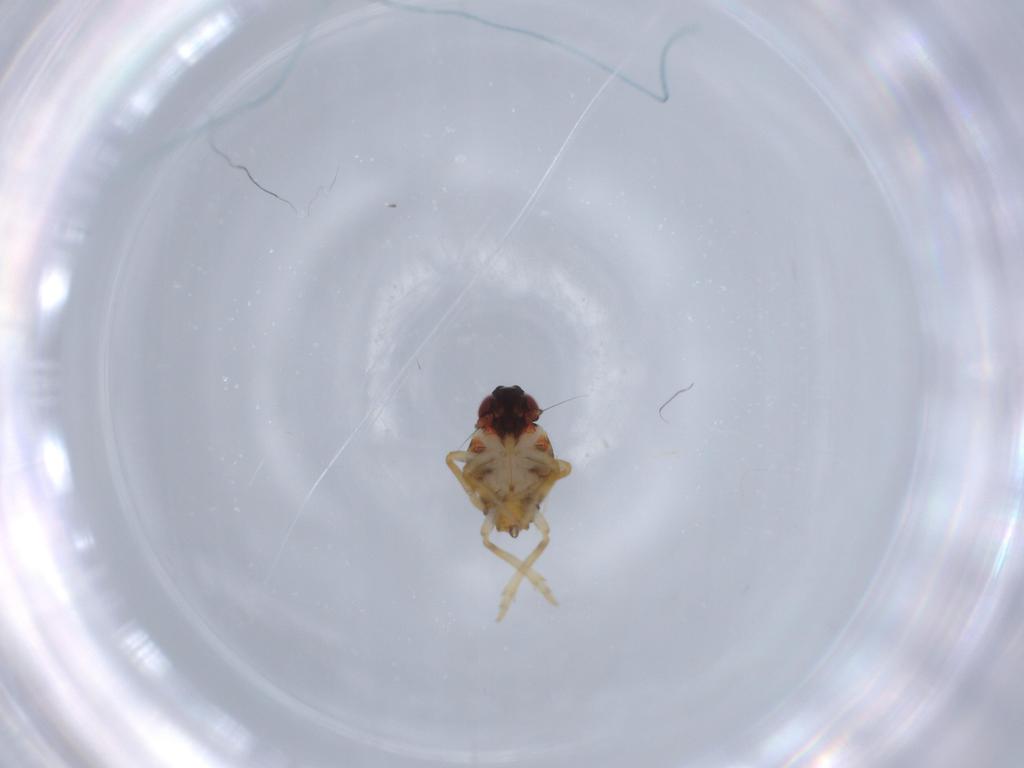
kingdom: Animalia
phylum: Arthropoda
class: Insecta
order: Hemiptera
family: Issidae
